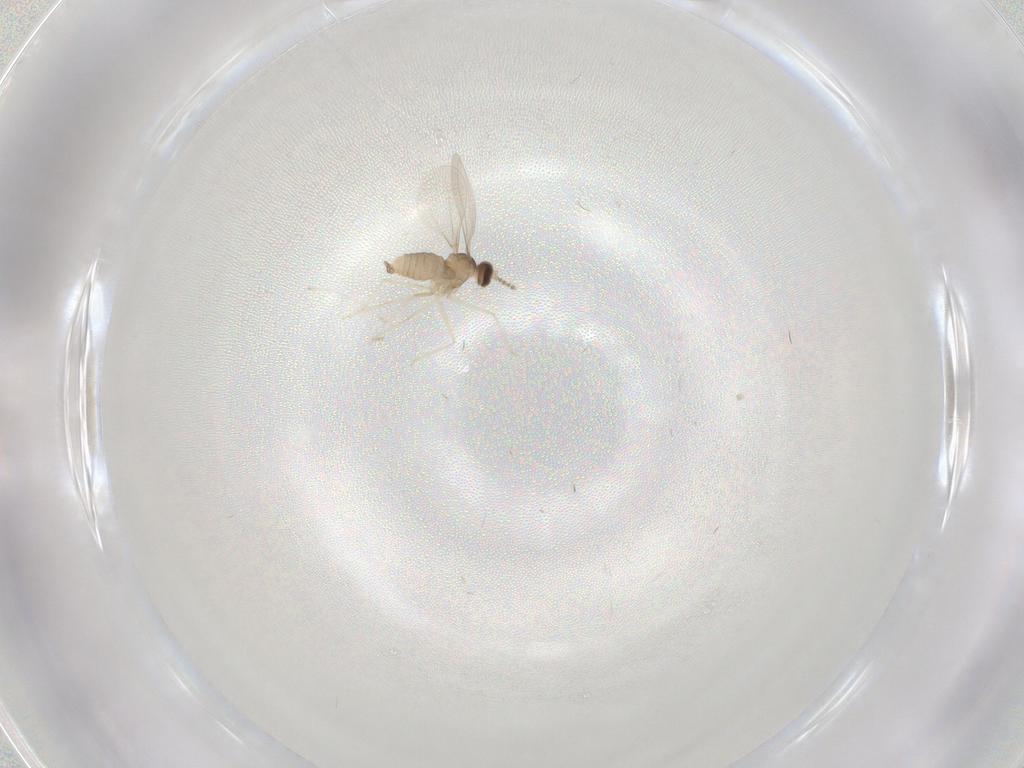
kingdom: Animalia
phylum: Arthropoda
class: Insecta
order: Diptera
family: Cecidomyiidae
